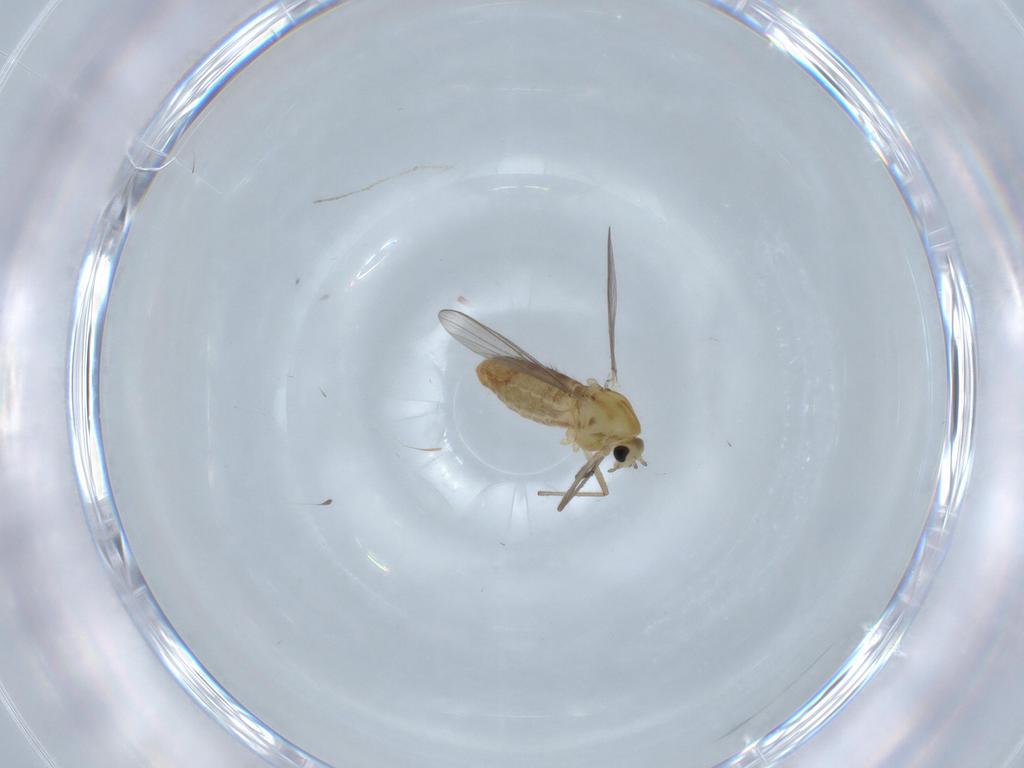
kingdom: Animalia
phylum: Arthropoda
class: Insecta
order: Diptera
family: Chironomidae
